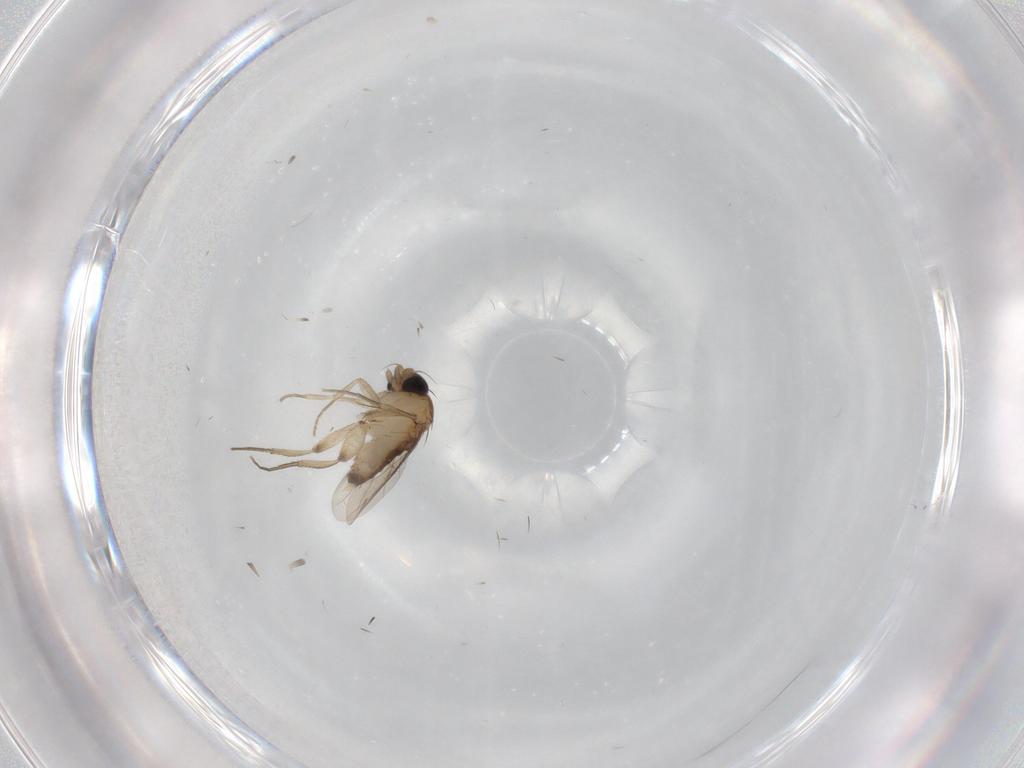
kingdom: Animalia
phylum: Arthropoda
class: Insecta
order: Diptera
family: Phoridae
